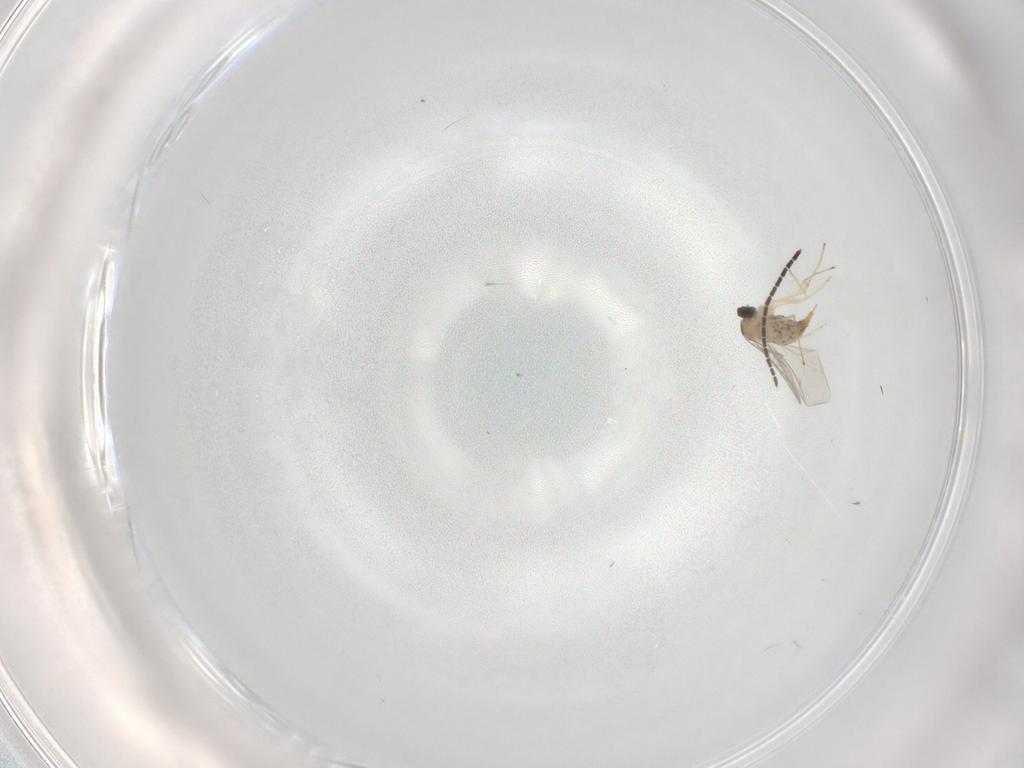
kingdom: Animalia
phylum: Arthropoda
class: Insecta
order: Diptera
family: Cecidomyiidae
